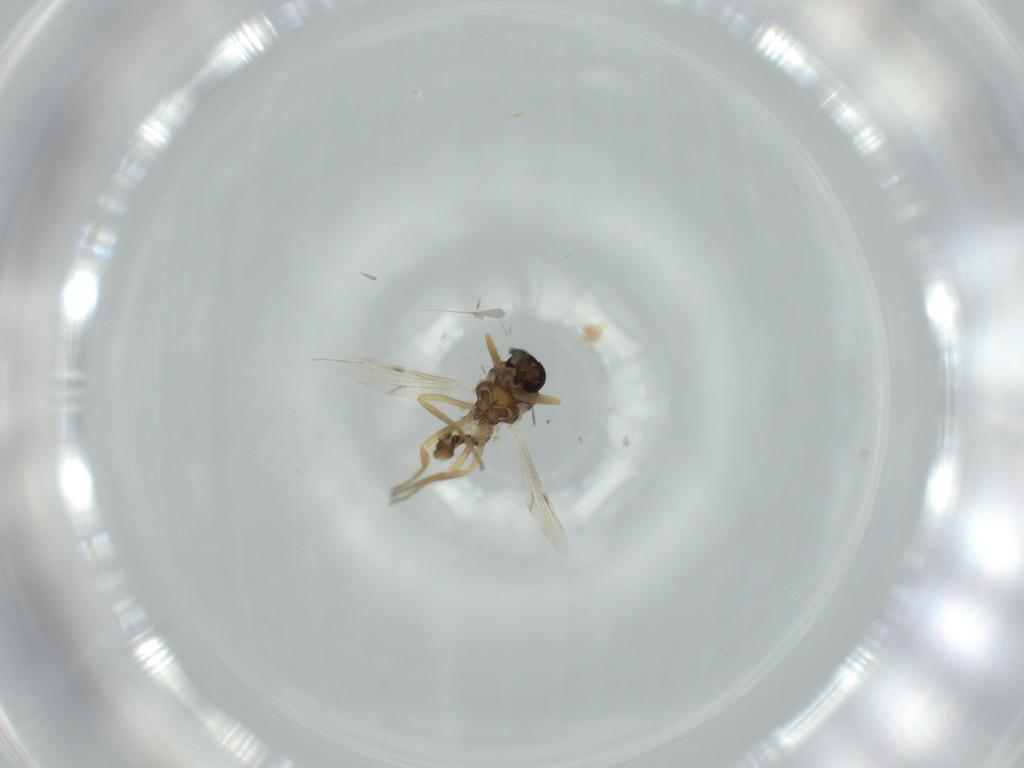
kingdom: Animalia
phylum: Arthropoda
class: Insecta
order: Diptera
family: Ceratopogonidae
